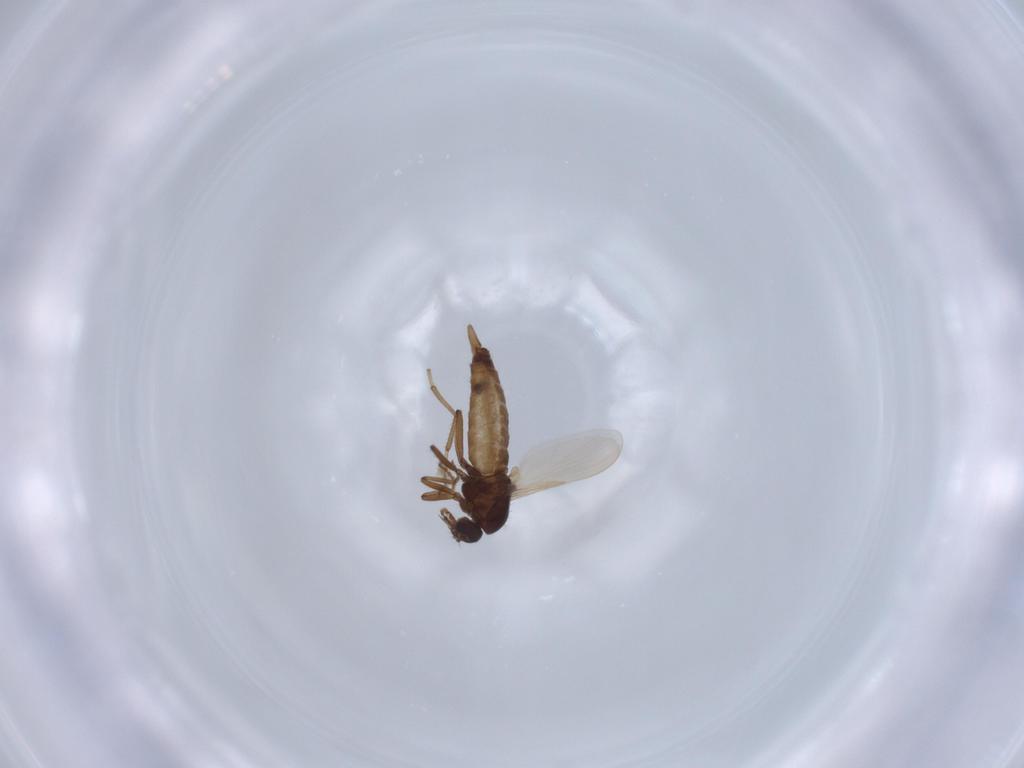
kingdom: Animalia
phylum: Arthropoda
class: Insecta
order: Diptera
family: Ceratopogonidae
